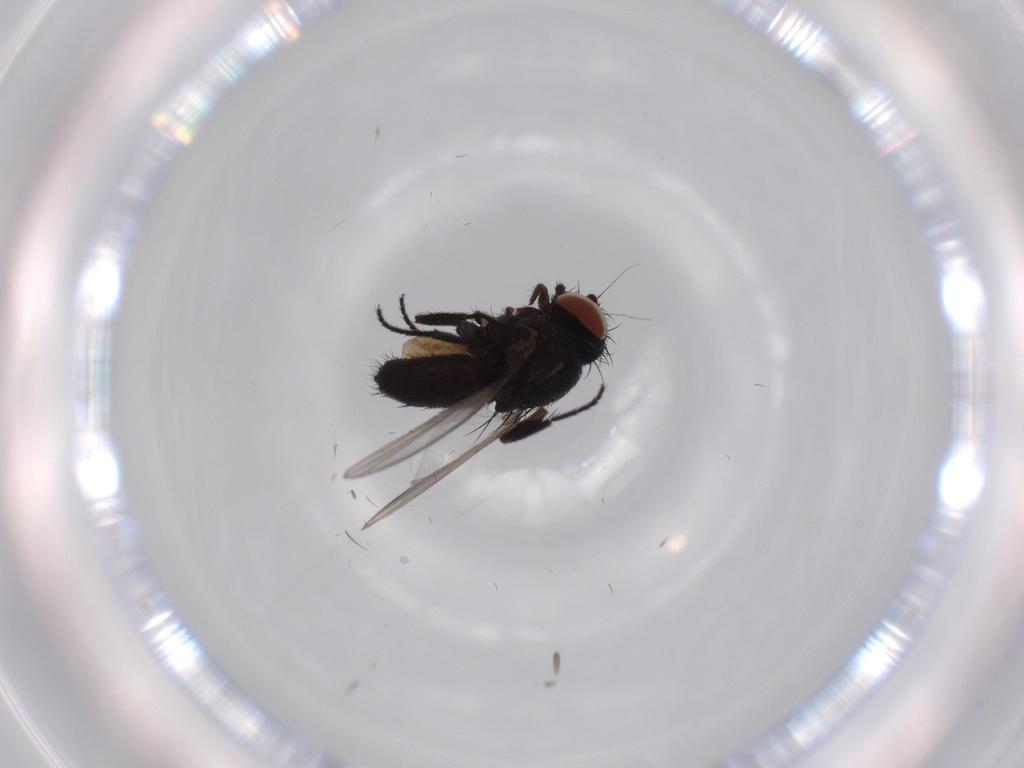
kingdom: Animalia
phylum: Arthropoda
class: Insecta
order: Diptera
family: Milichiidae
